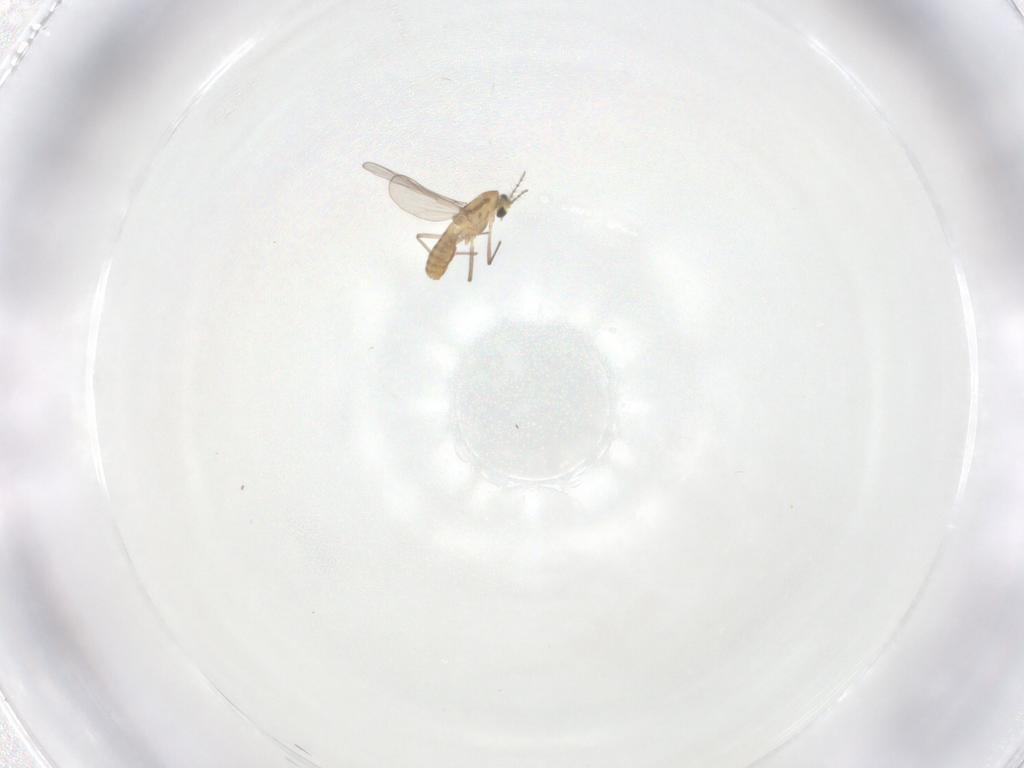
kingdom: Animalia
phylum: Arthropoda
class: Insecta
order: Diptera
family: Chironomidae
